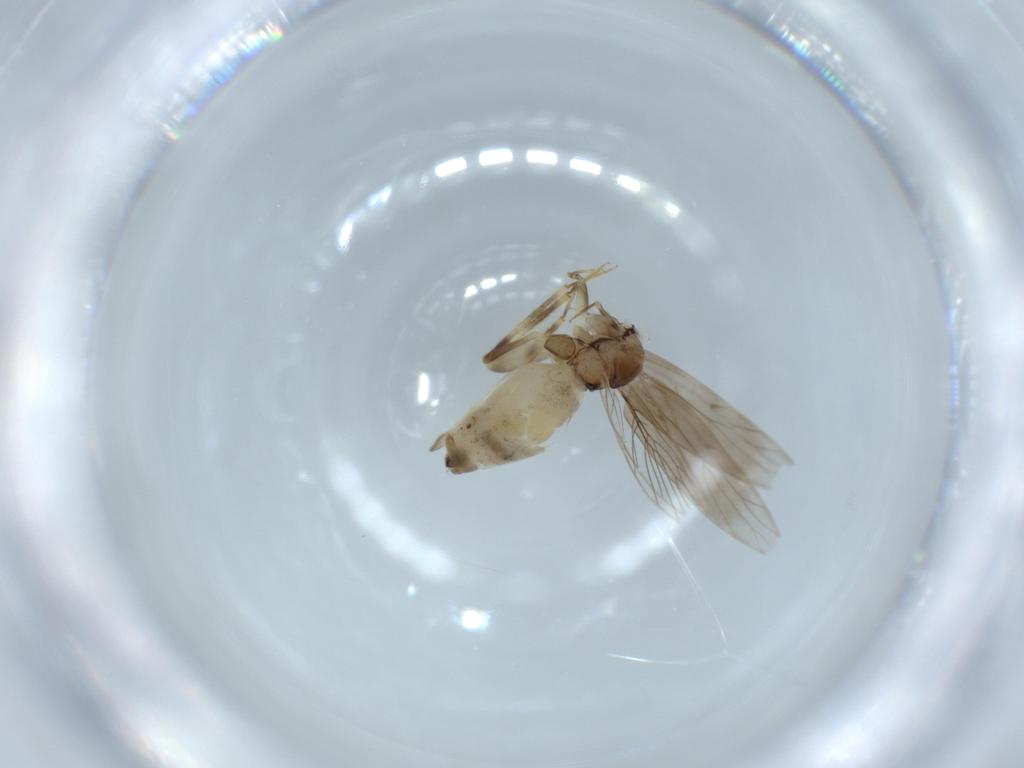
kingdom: Animalia
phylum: Arthropoda
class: Insecta
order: Psocodea
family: Lepidopsocidae
